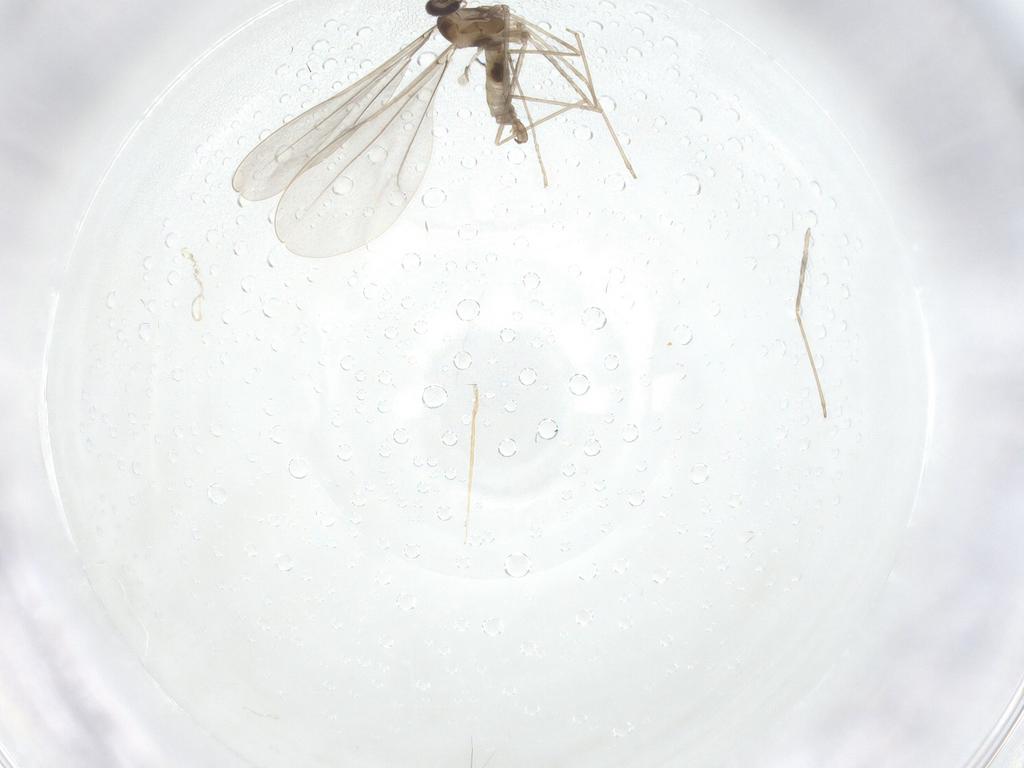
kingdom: Animalia
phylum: Arthropoda
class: Insecta
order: Diptera
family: Cecidomyiidae
